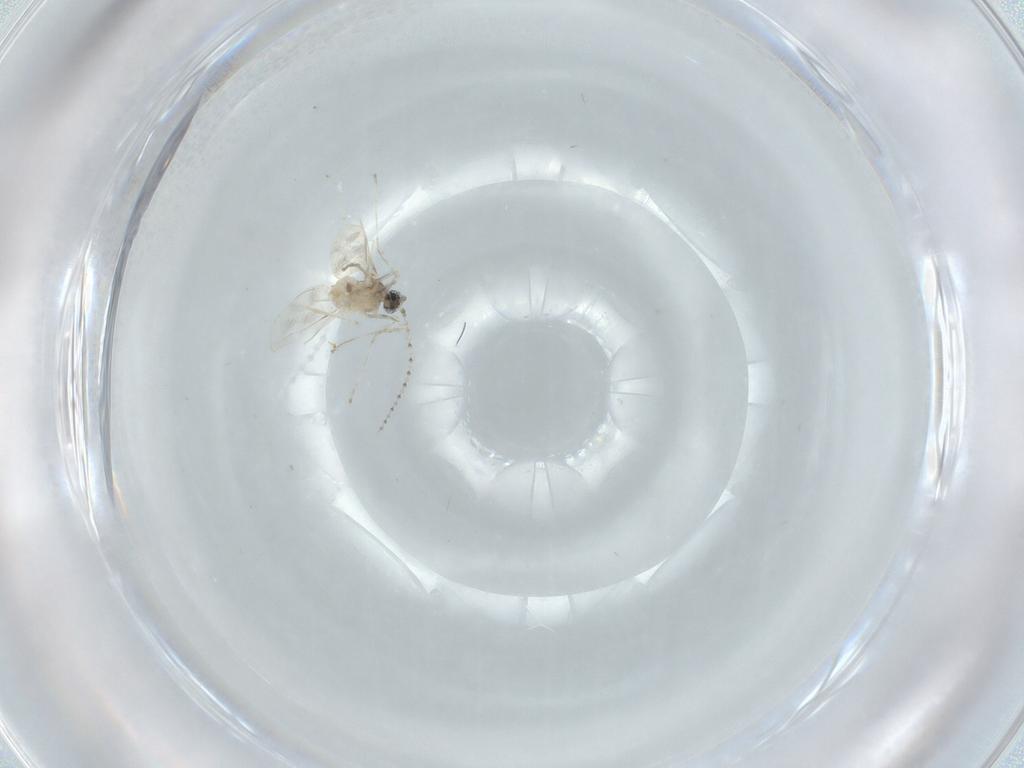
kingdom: Animalia
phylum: Arthropoda
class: Insecta
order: Diptera
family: Cecidomyiidae
